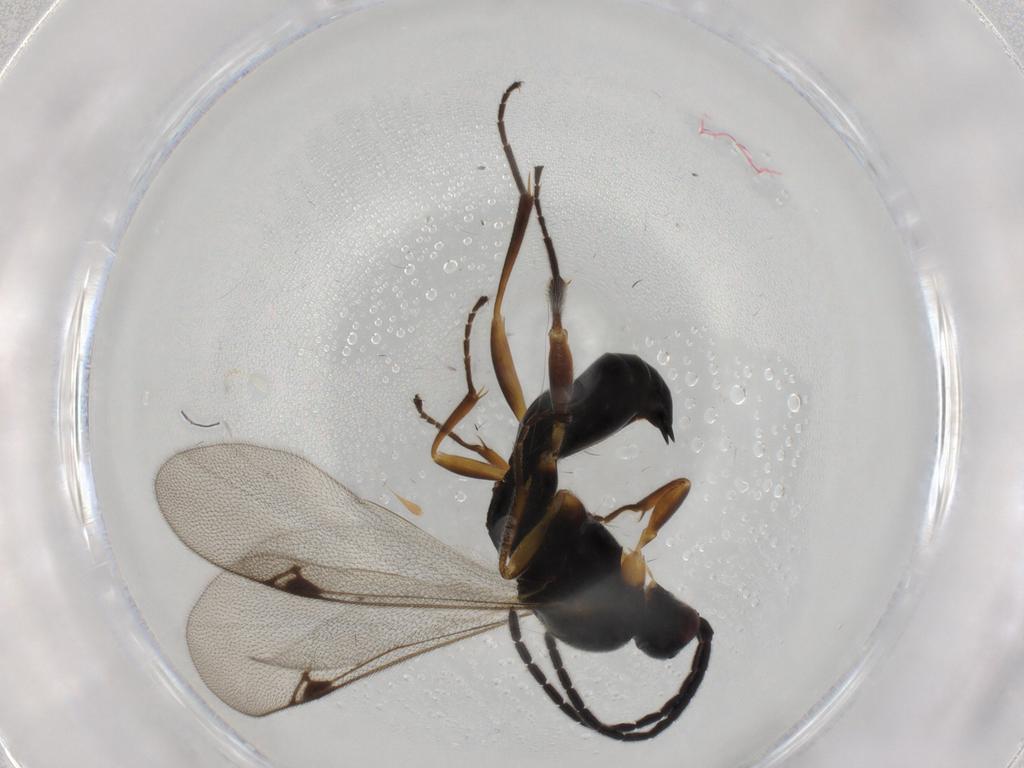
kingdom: Animalia
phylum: Arthropoda
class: Insecta
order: Hymenoptera
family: Proctotrupidae
